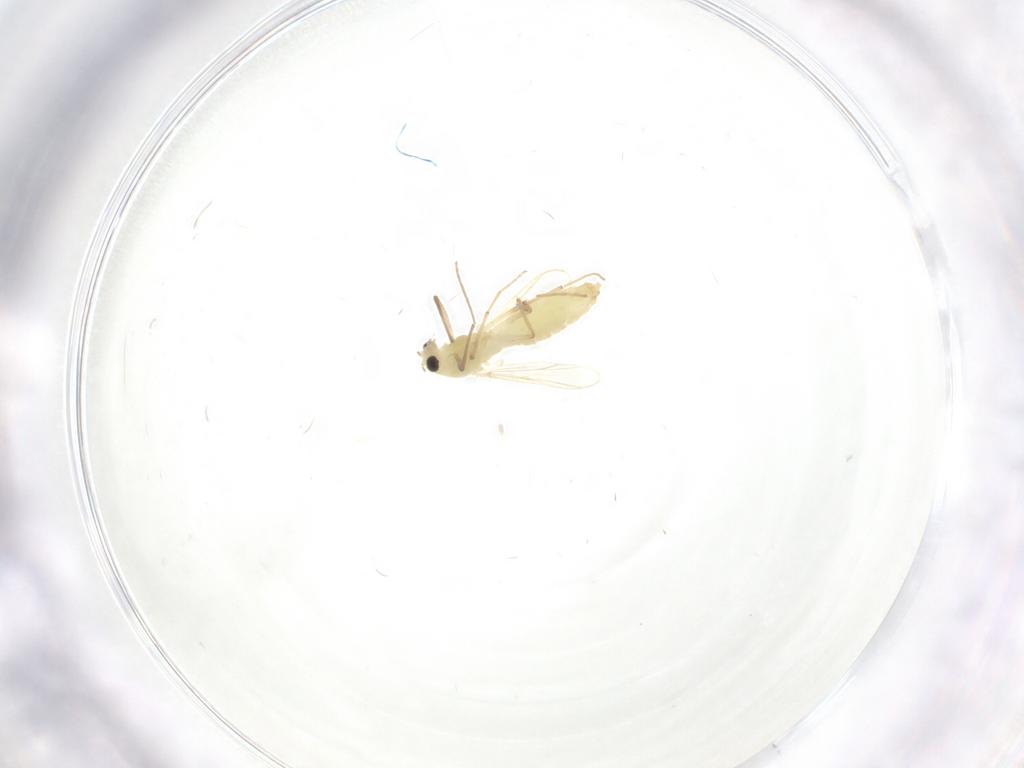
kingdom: Animalia
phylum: Arthropoda
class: Insecta
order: Diptera
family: Chironomidae
